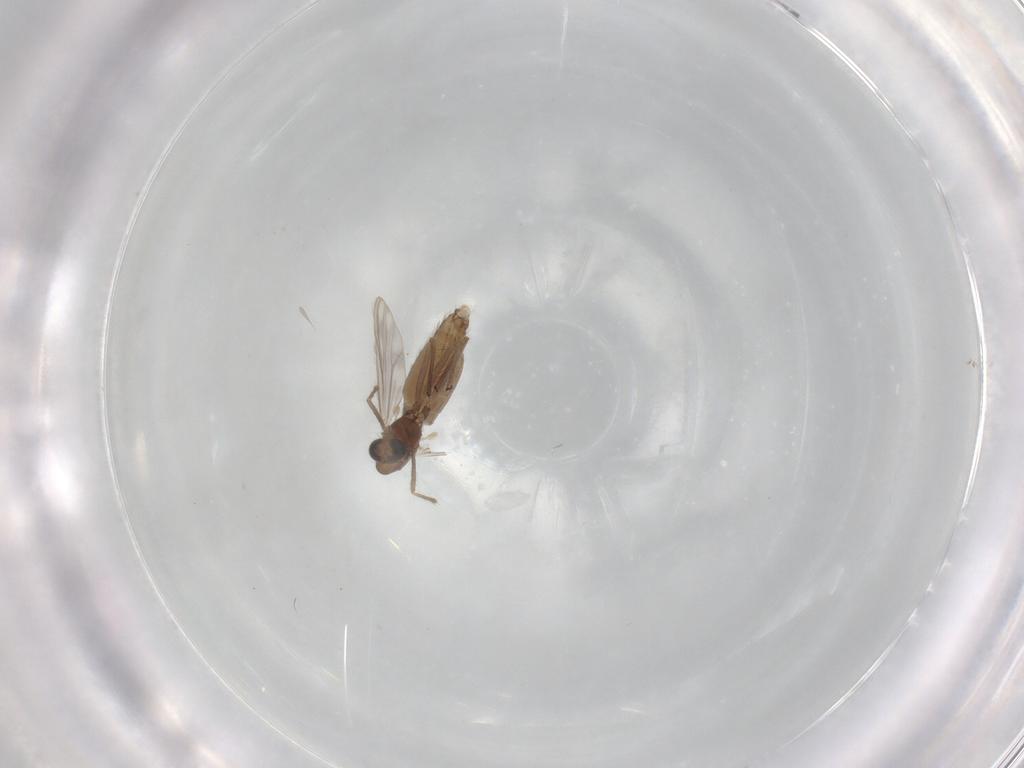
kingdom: Animalia
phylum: Arthropoda
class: Insecta
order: Diptera
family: Chironomidae
